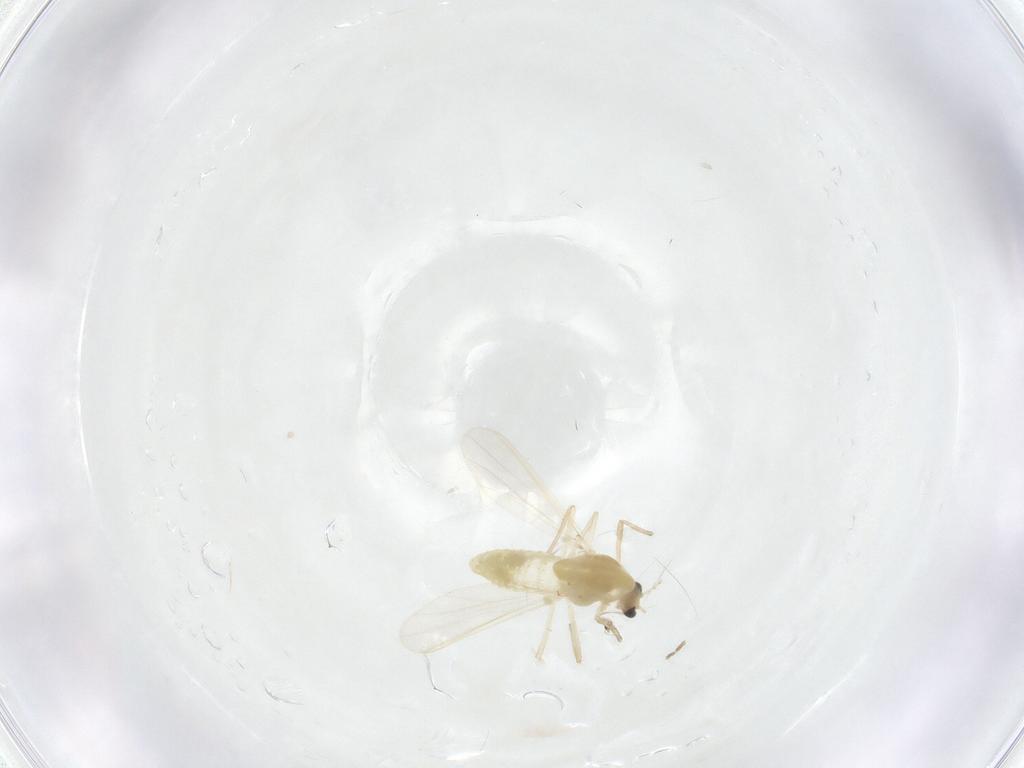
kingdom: Animalia
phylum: Arthropoda
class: Insecta
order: Diptera
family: Chironomidae
